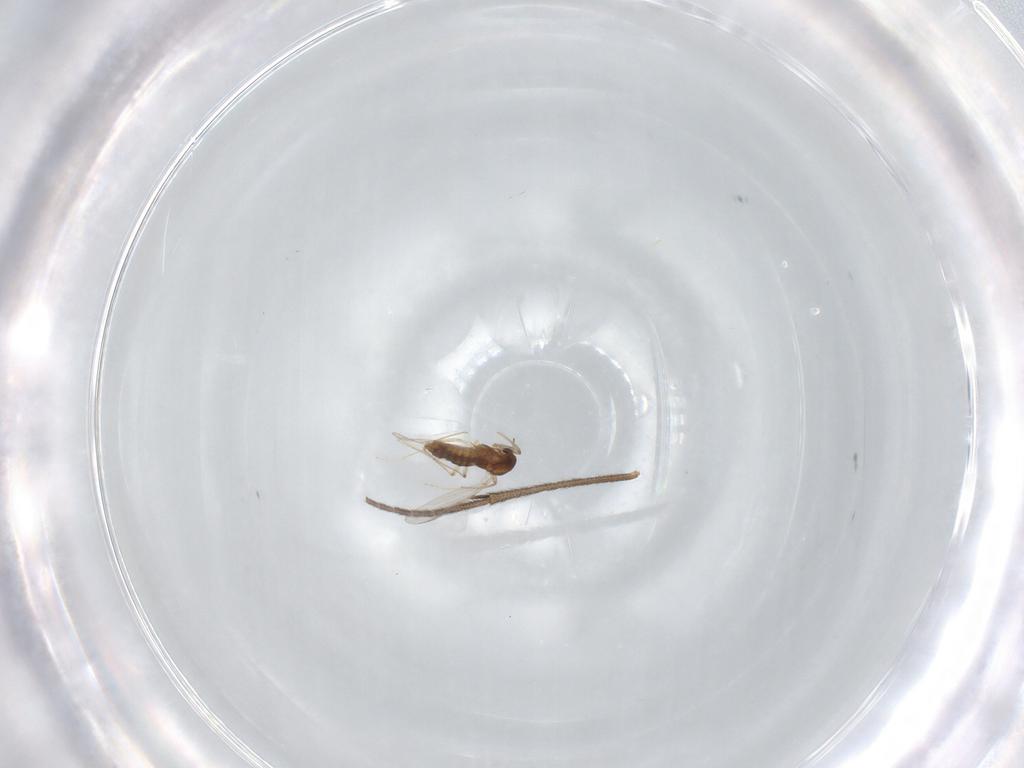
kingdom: Animalia
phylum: Arthropoda
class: Insecta
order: Diptera
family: Chironomidae
